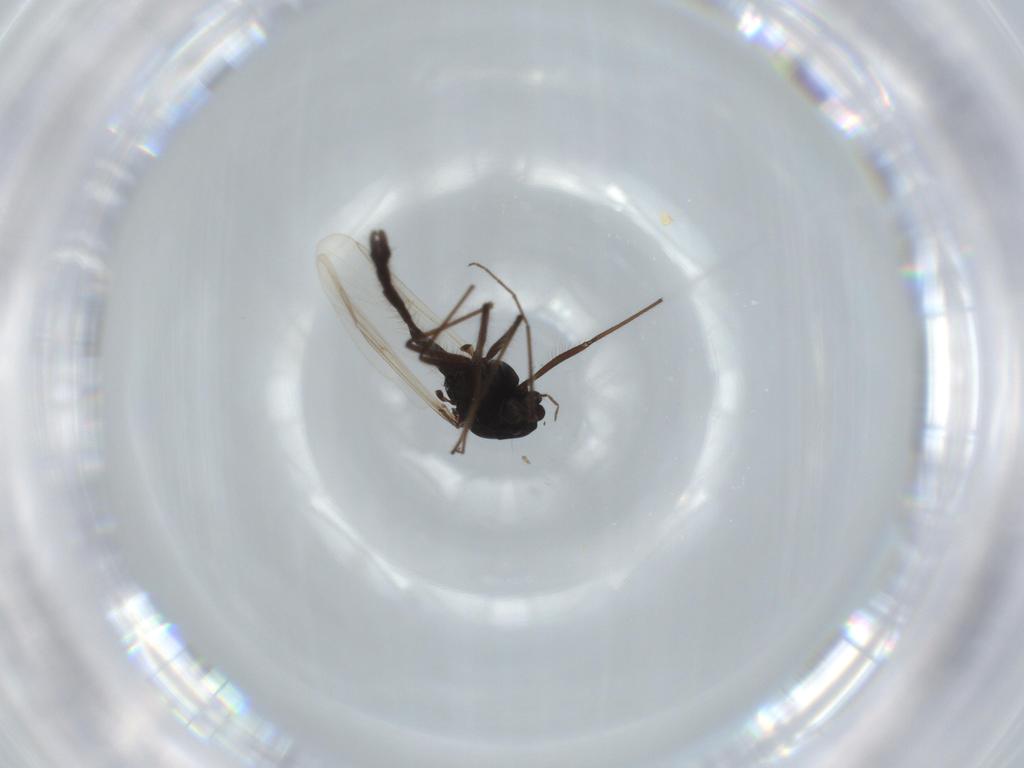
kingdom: Animalia
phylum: Arthropoda
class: Insecta
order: Diptera
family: Chironomidae
